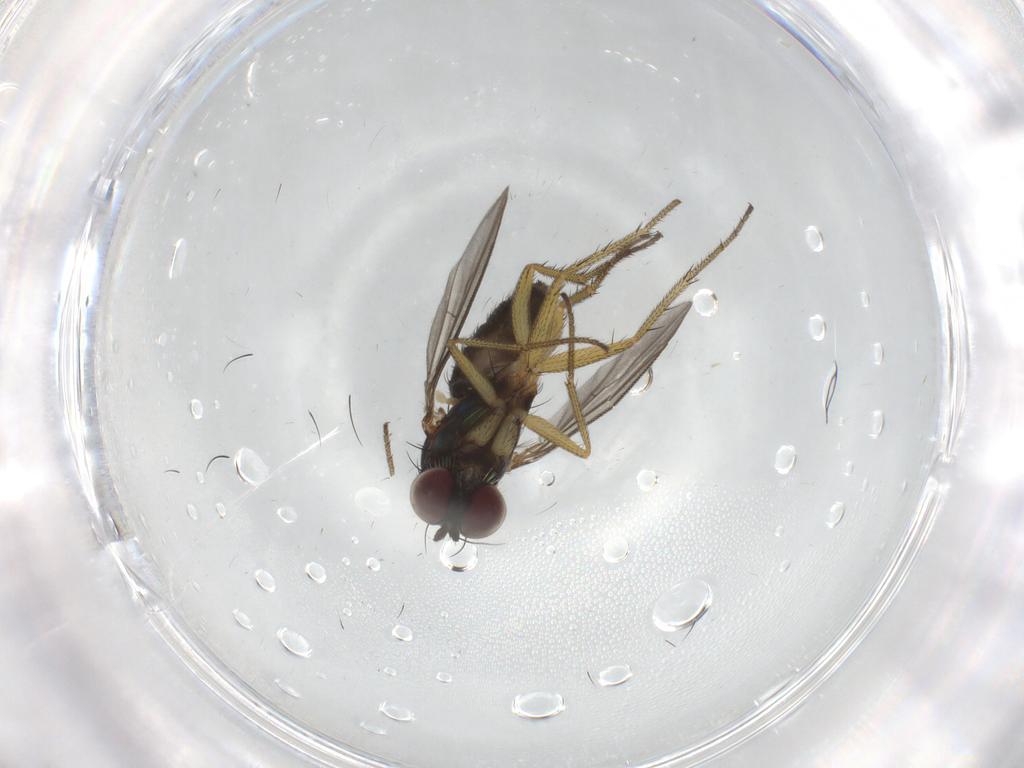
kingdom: Animalia
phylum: Arthropoda
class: Insecta
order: Diptera
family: Dolichopodidae
